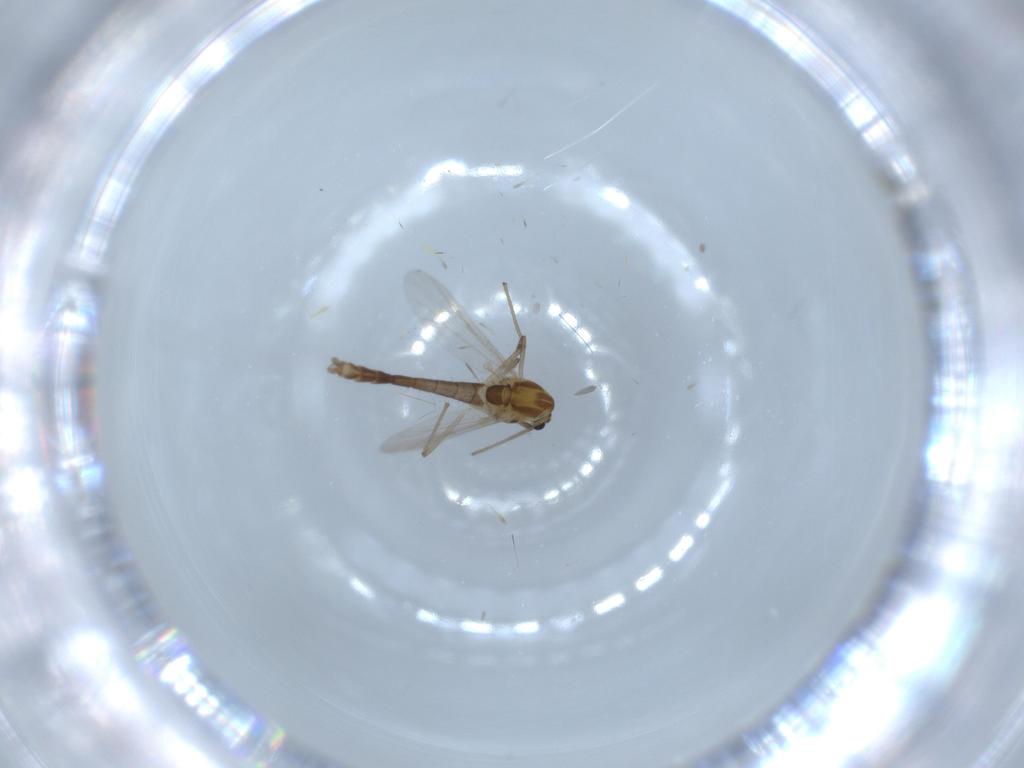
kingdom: Animalia
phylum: Arthropoda
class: Insecta
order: Diptera
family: Chironomidae
